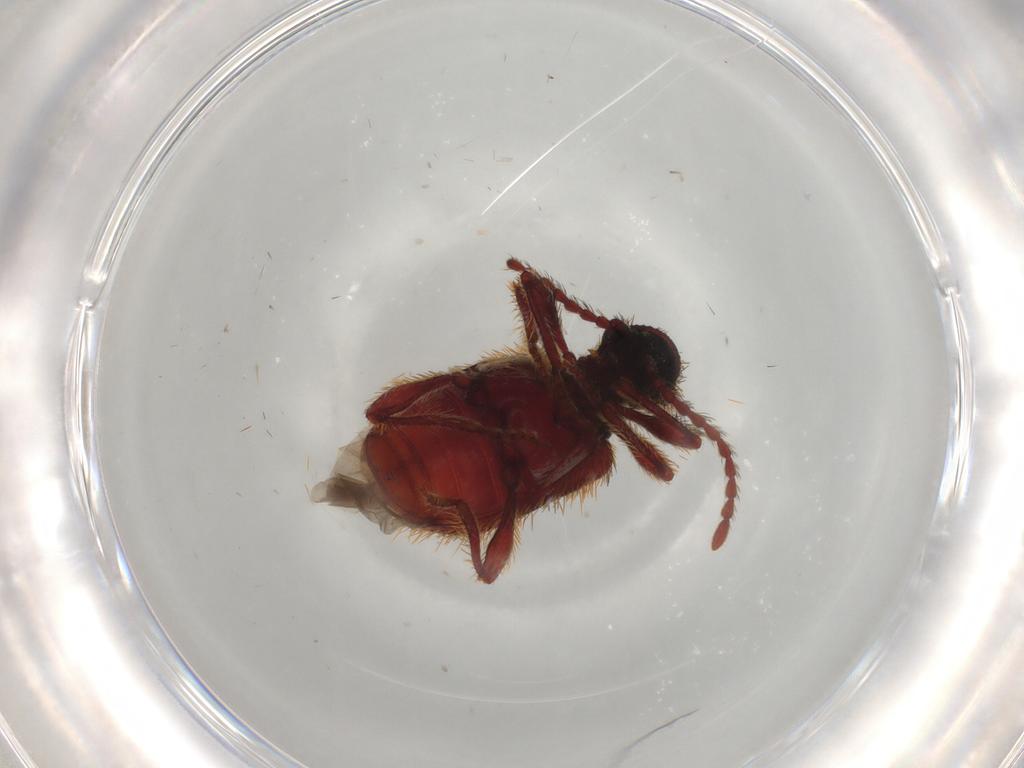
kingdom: Animalia
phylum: Arthropoda
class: Insecta
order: Coleoptera
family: Ptinidae
